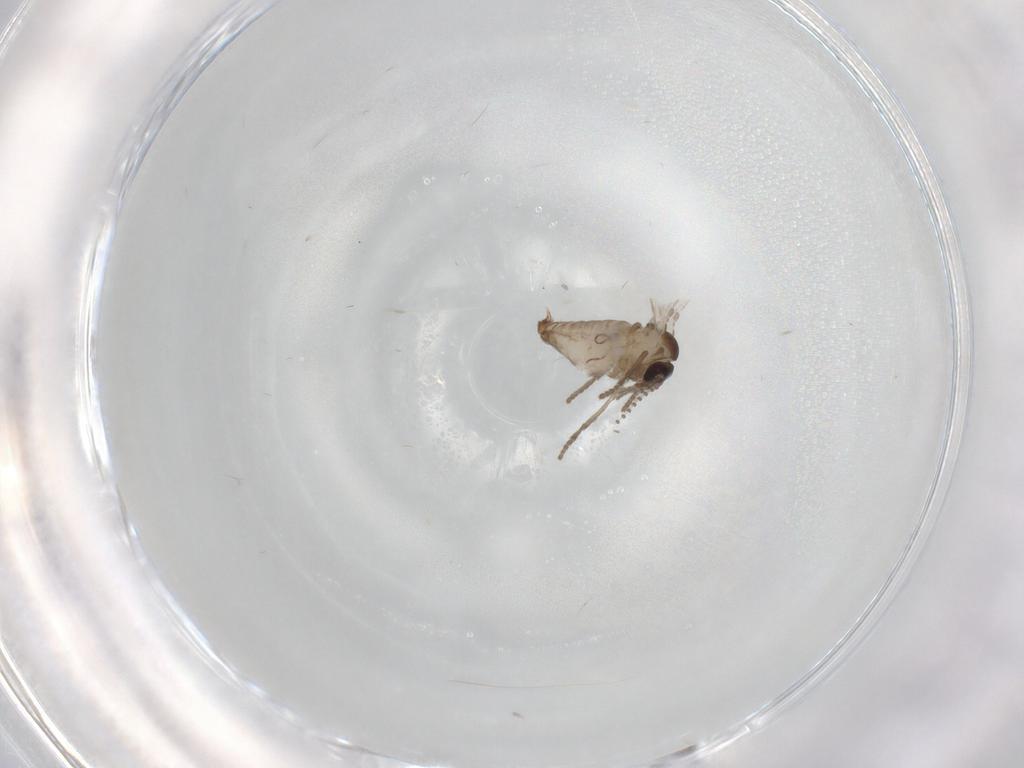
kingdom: Animalia
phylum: Arthropoda
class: Insecta
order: Diptera
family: Psychodidae
